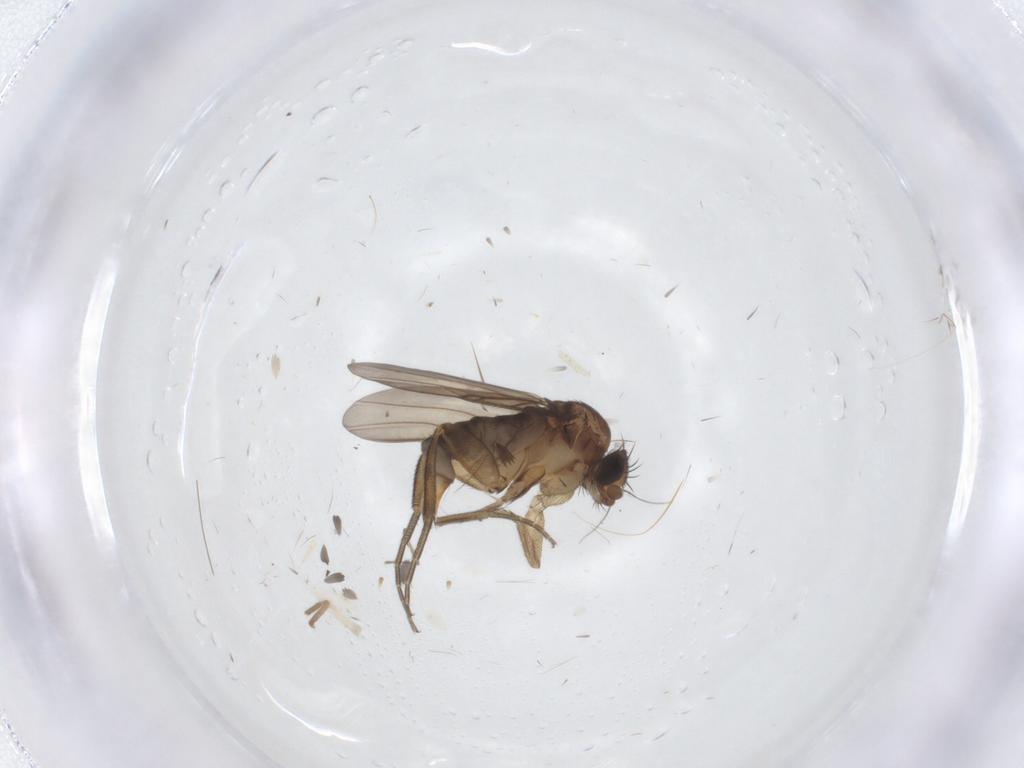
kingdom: Animalia
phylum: Arthropoda
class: Insecta
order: Diptera
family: Phoridae
